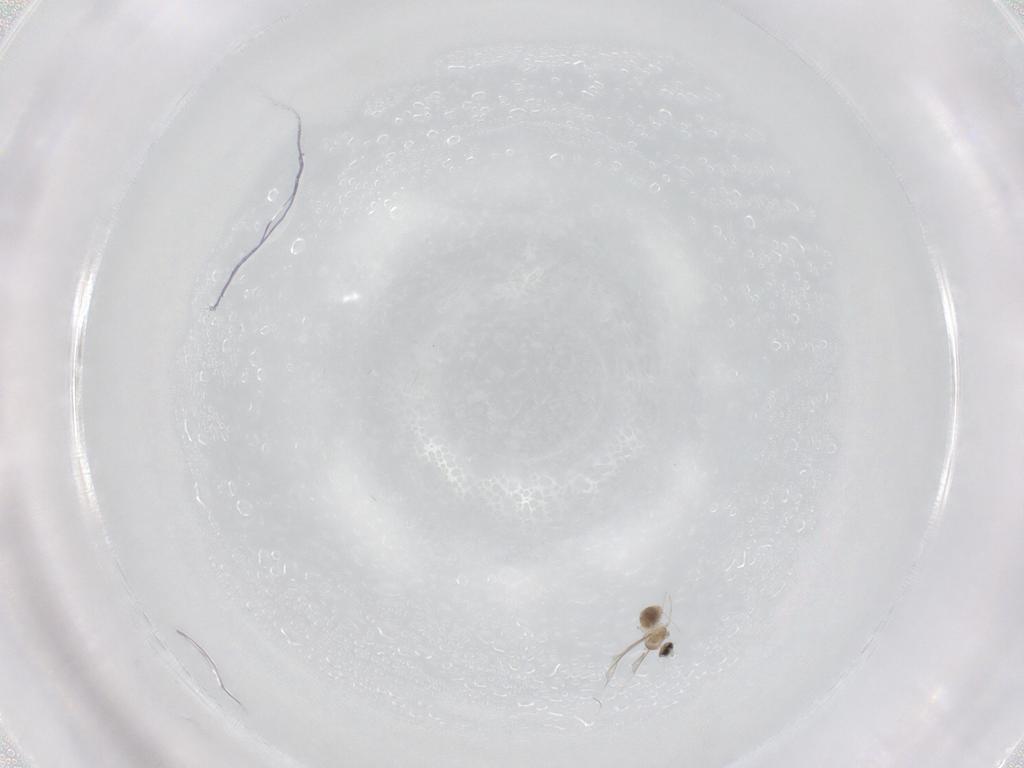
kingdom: Animalia
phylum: Arthropoda
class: Insecta
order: Diptera
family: Cecidomyiidae
